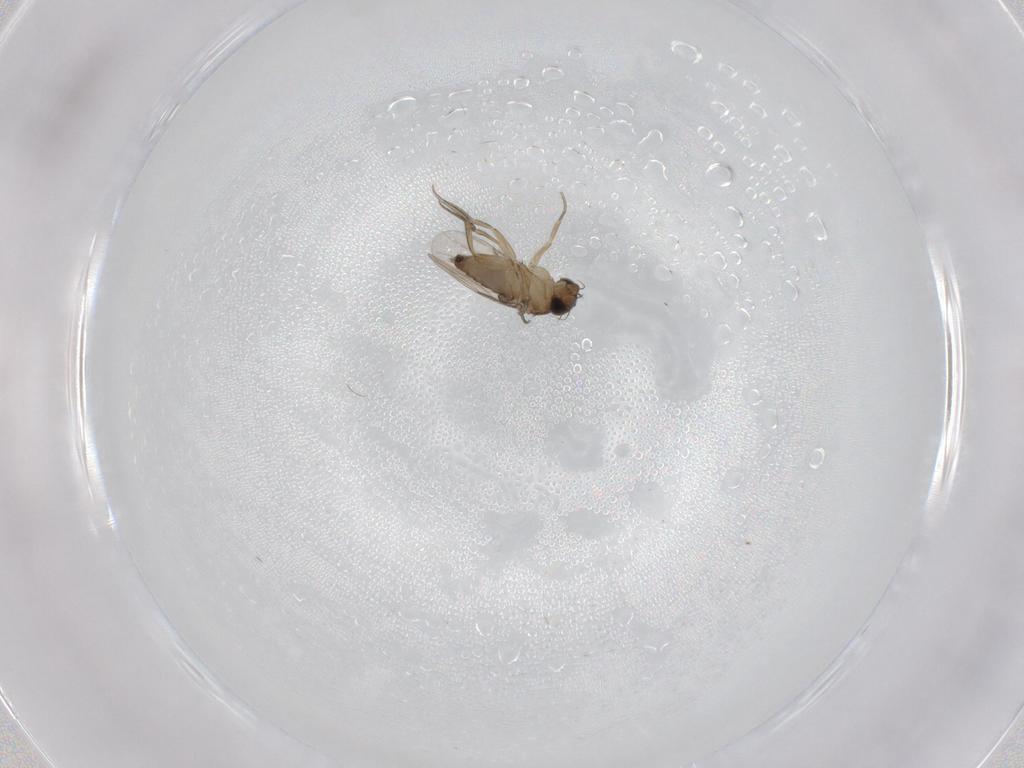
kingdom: Animalia
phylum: Arthropoda
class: Insecta
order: Diptera
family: Phoridae
